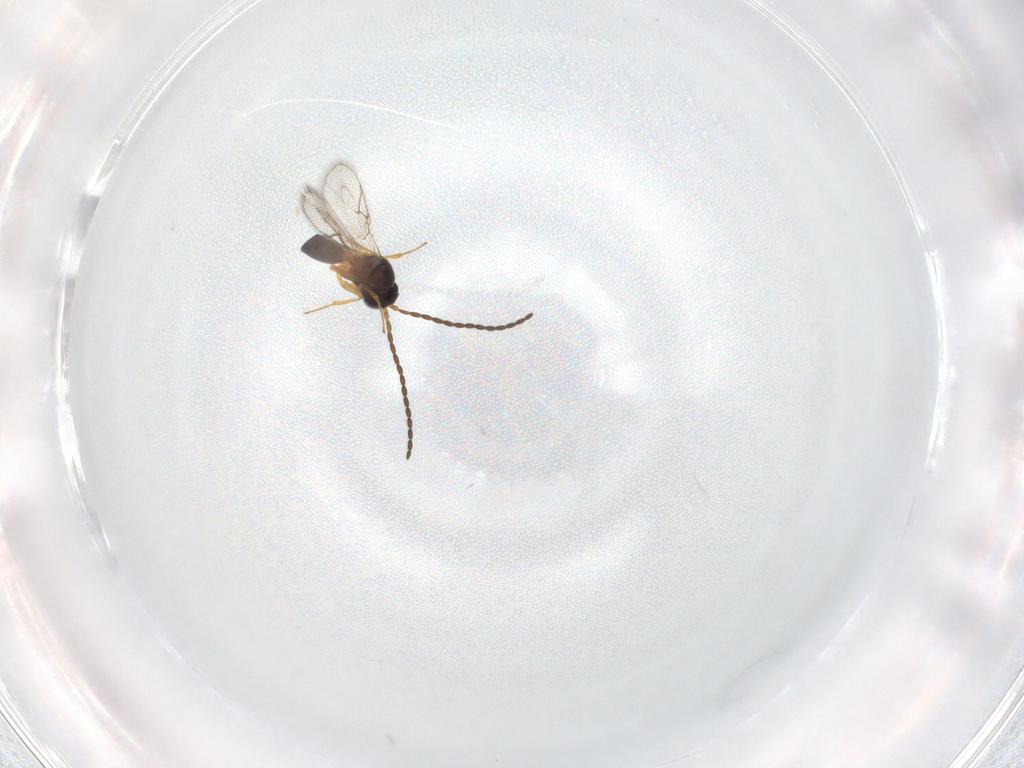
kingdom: Animalia
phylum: Arthropoda
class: Insecta
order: Hymenoptera
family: Figitidae
